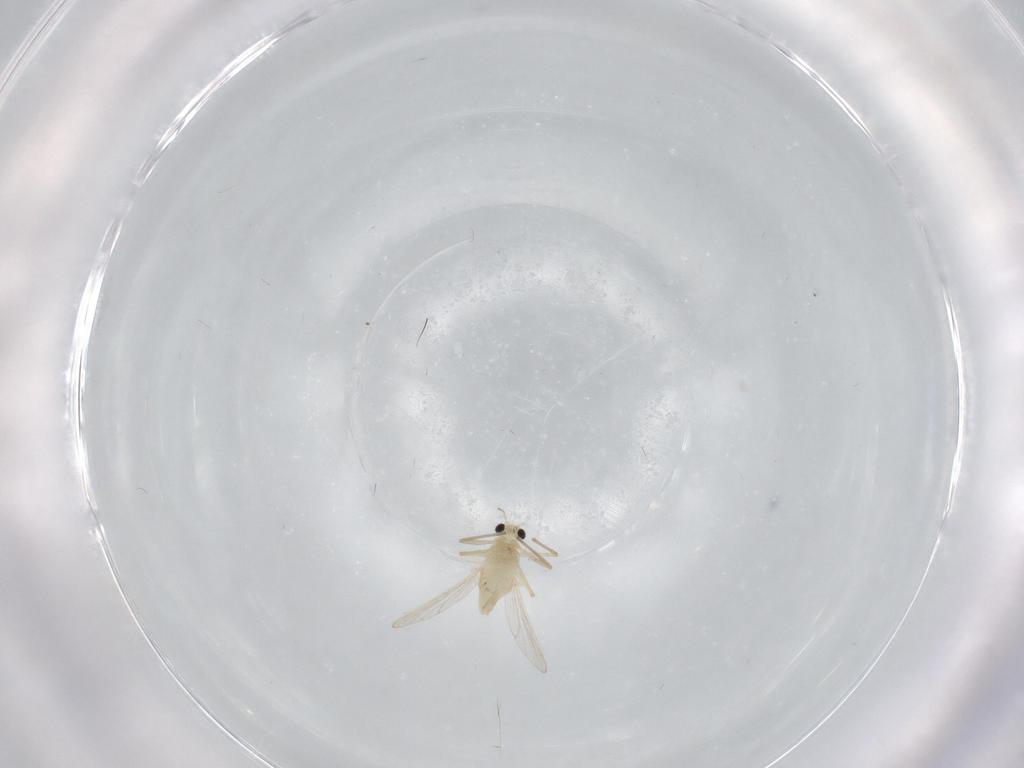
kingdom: Animalia
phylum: Arthropoda
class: Insecta
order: Diptera
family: Chironomidae
